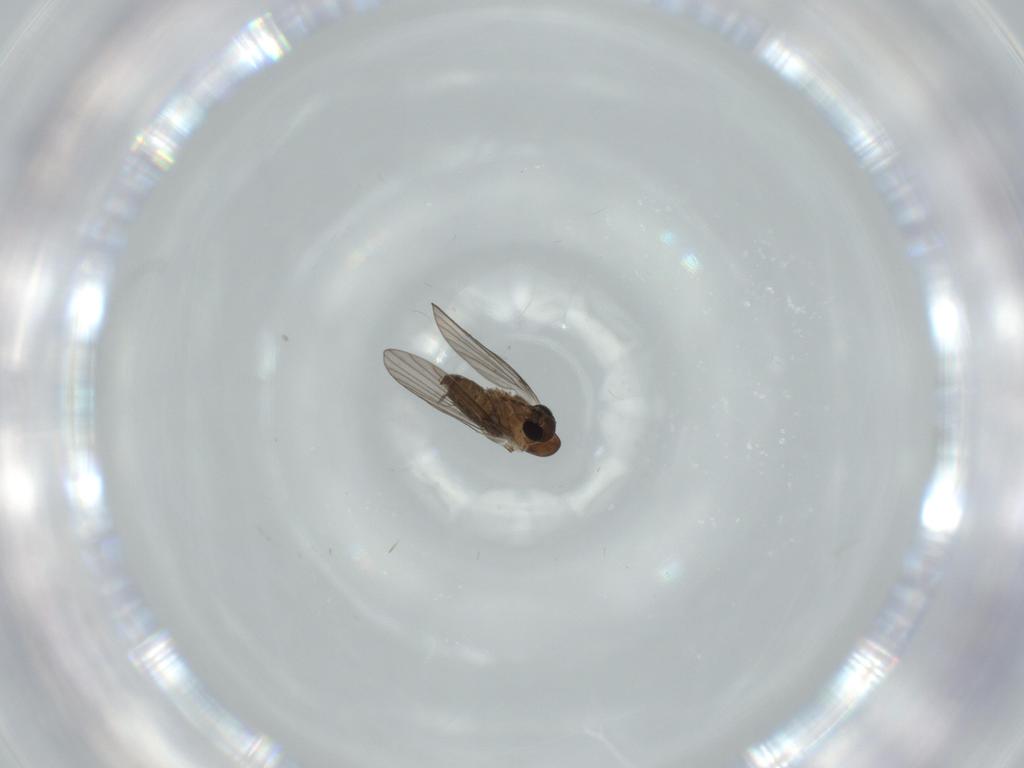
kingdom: Animalia
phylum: Arthropoda
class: Insecta
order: Diptera
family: Psychodidae
